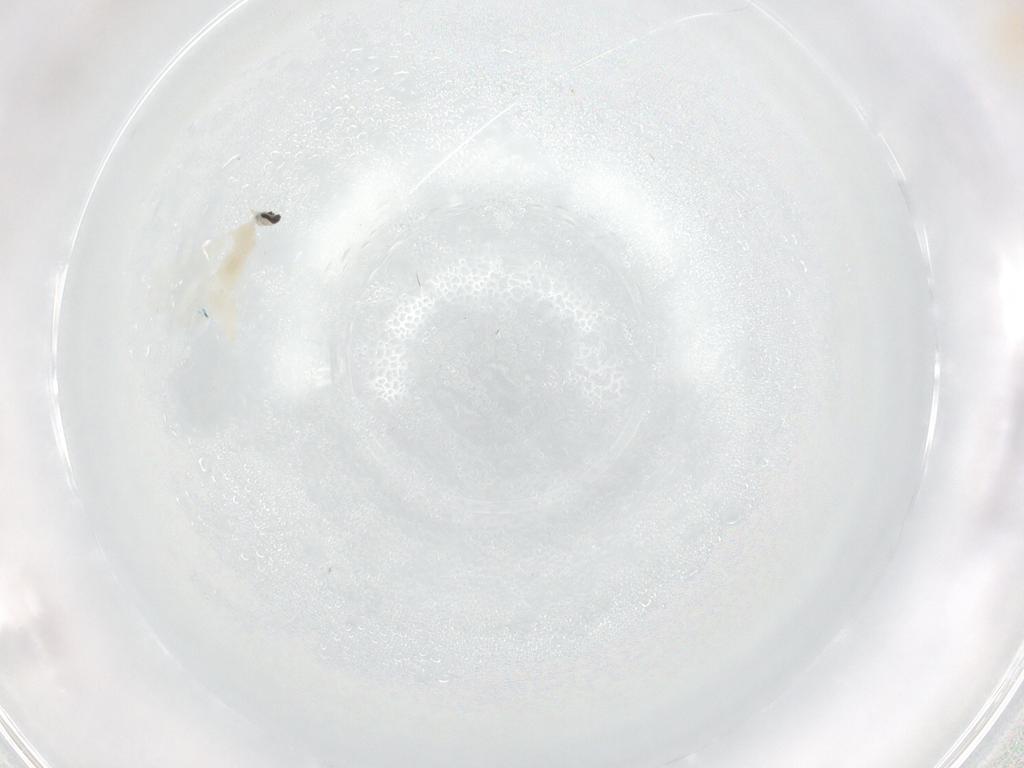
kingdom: Animalia
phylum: Arthropoda
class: Insecta
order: Diptera
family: Cecidomyiidae
